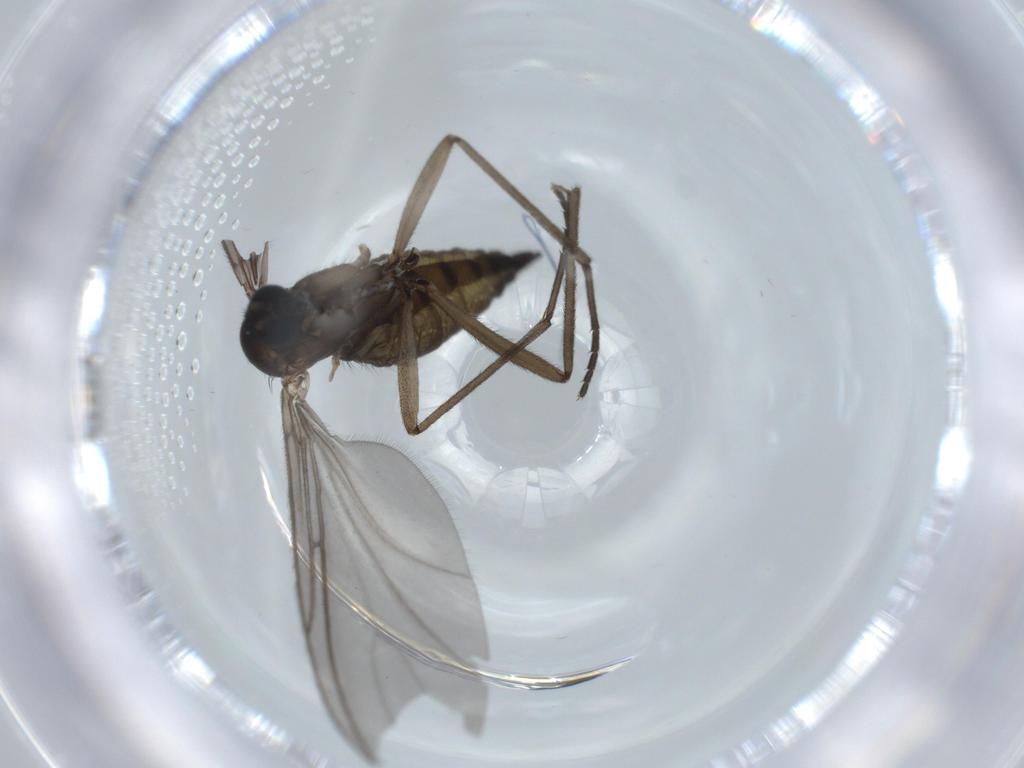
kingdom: Animalia
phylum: Arthropoda
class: Insecta
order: Diptera
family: Sciaridae
